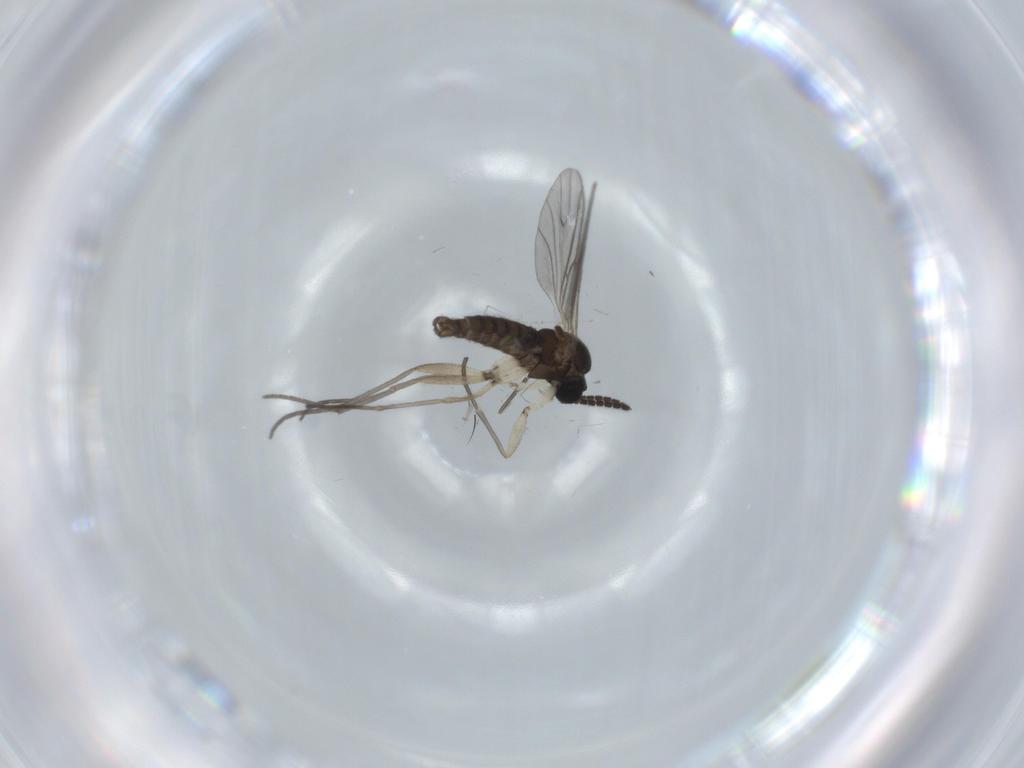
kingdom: Animalia
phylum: Arthropoda
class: Insecta
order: Diptera
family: Sciaridae
